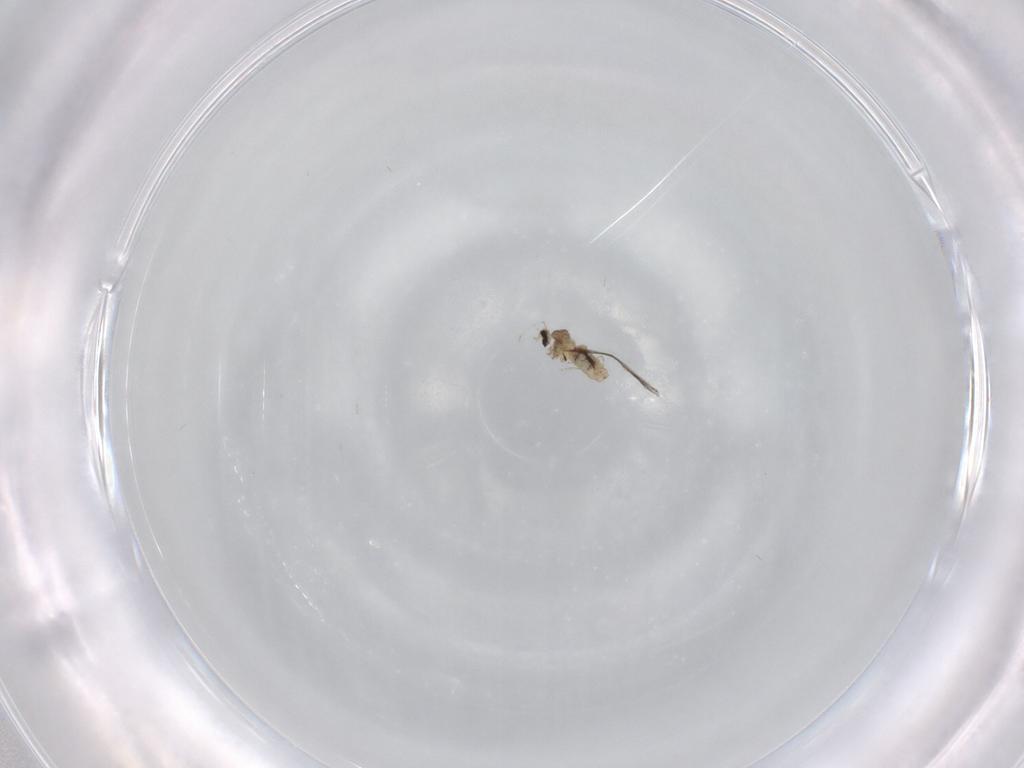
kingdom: Animalia
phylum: Arthropoda
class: Insecta
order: Diptera
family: Cecidomyiidae
